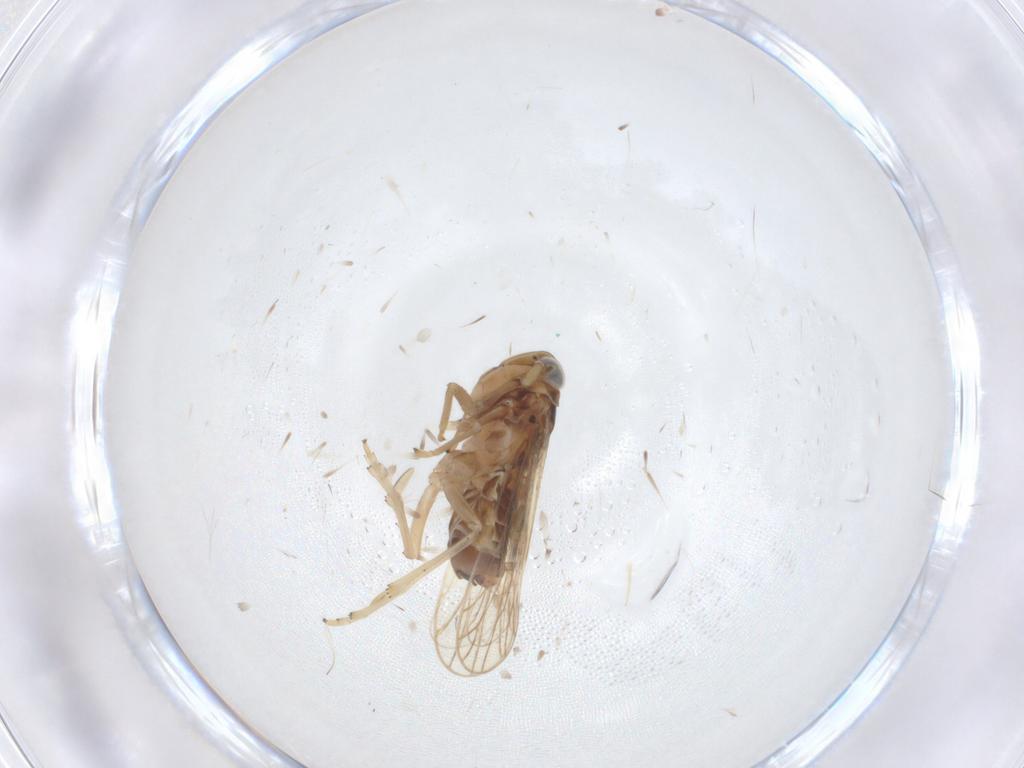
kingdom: Animalia
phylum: Arthropoda
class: Insecta
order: Hemiptera
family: Delphacidae
